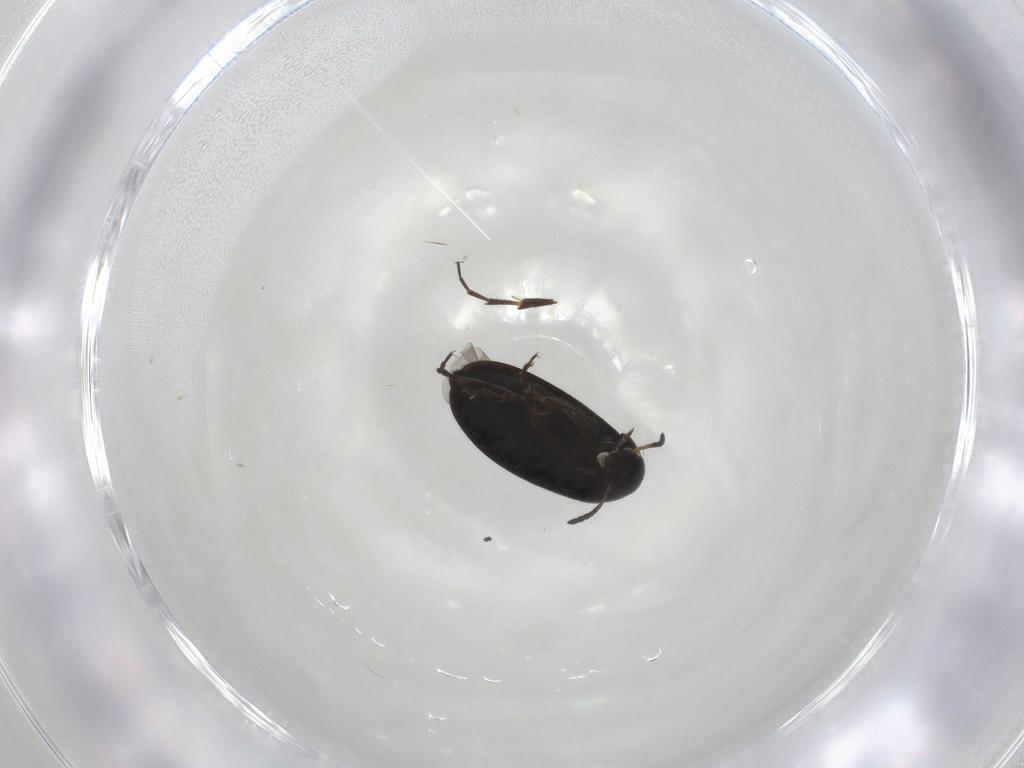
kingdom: Animalia
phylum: Arthropoda
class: Insecta
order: Coleoptera
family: Scraptiidae
